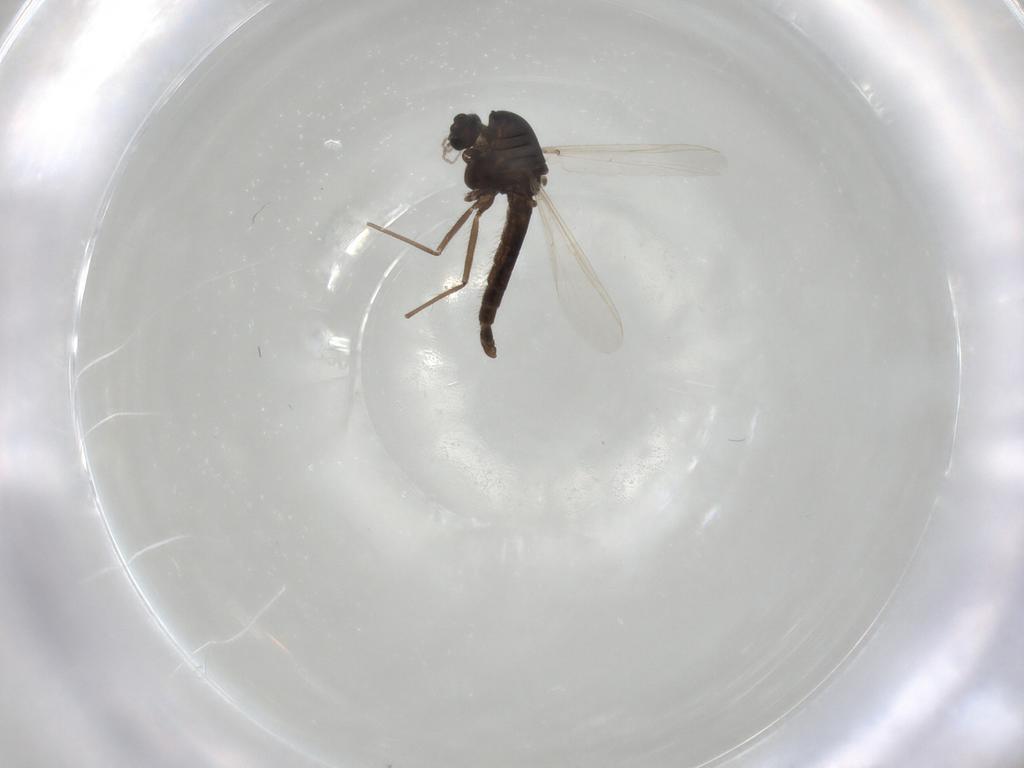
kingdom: Animalia
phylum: Arthropoda
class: Insecta
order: Diptera
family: Chironomidae
